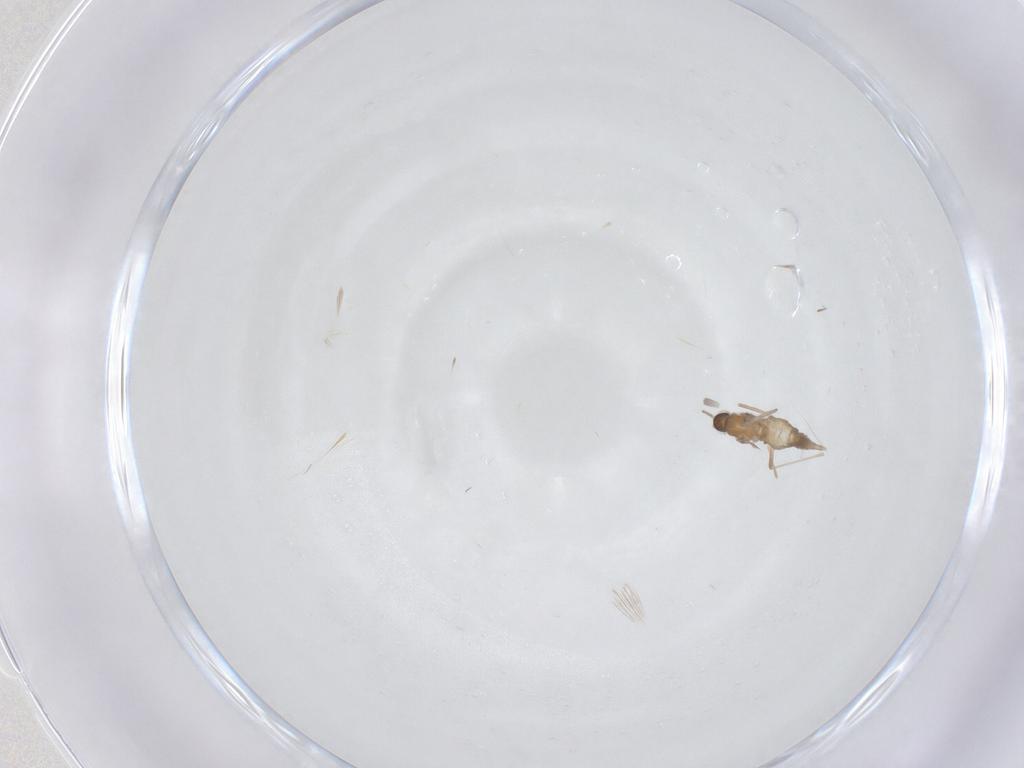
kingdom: Animalia
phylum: Arthropoda
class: Insecta
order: Diptera
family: Cecidomyiidae
